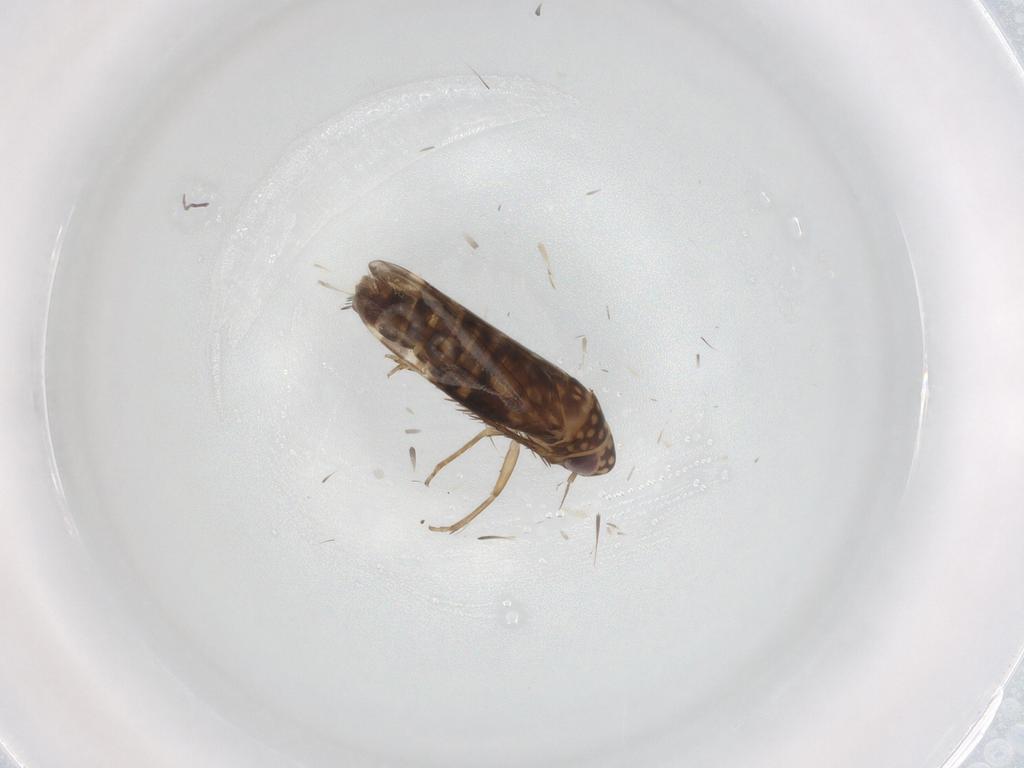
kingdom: Animalia
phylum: Arthropoda
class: Insecta
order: Hemiptera
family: Cicadellidae
